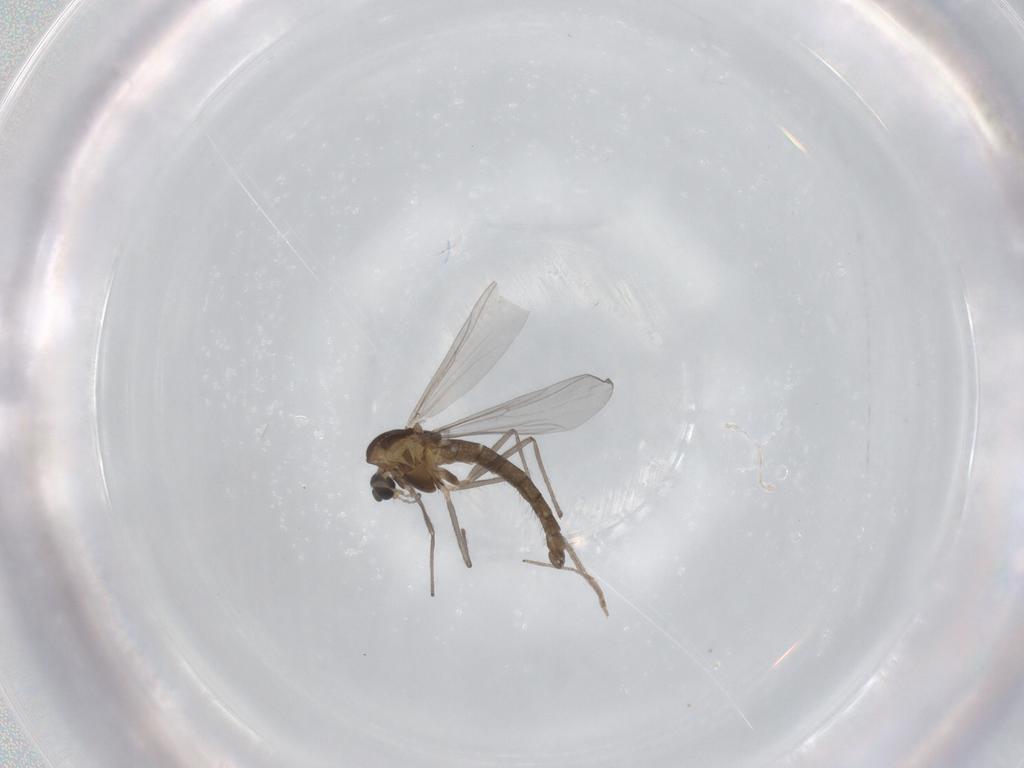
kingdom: Animalia
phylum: Arthropoda
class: Insecta
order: Diptera
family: Chironomidae
